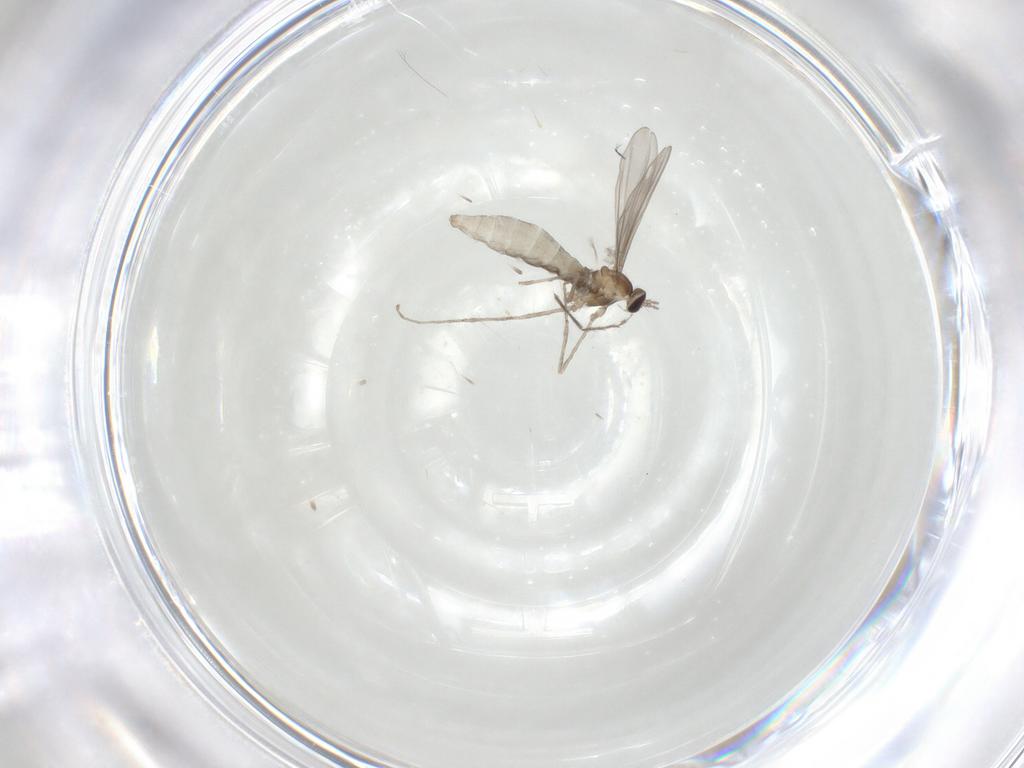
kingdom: Animalia
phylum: Arthropoda
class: Insecta
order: Diptera
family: Cecidomyiidae
